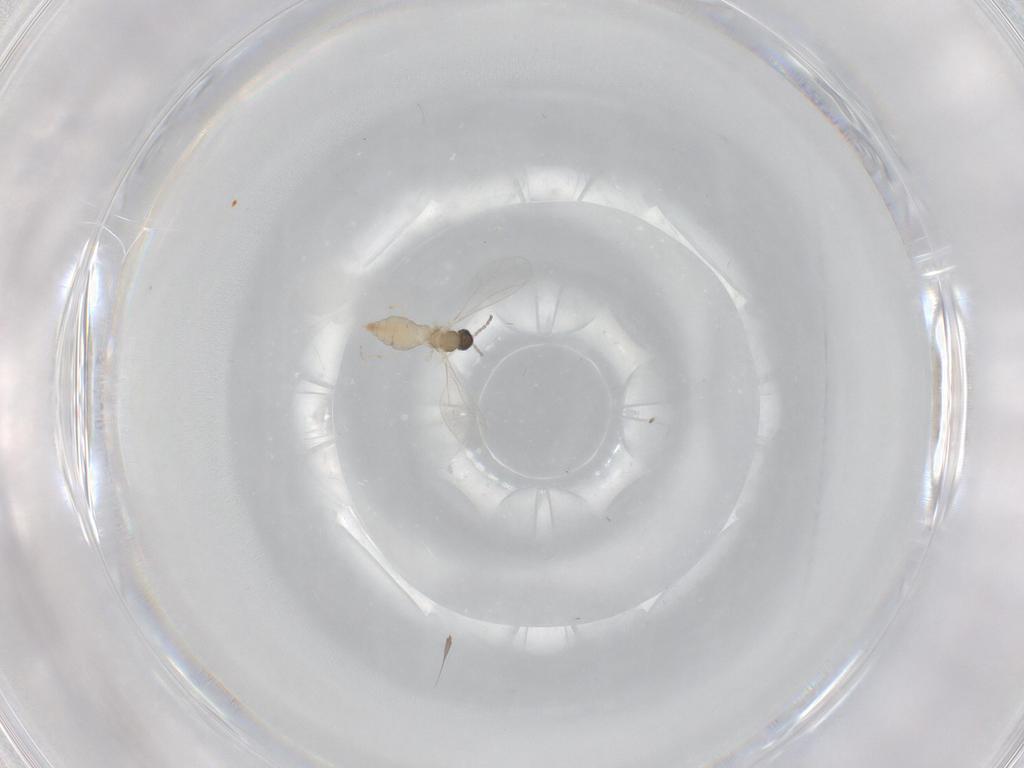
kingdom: Animalia
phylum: Arthropoda
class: Insecta
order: Diptera
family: Cecidomyiidae
